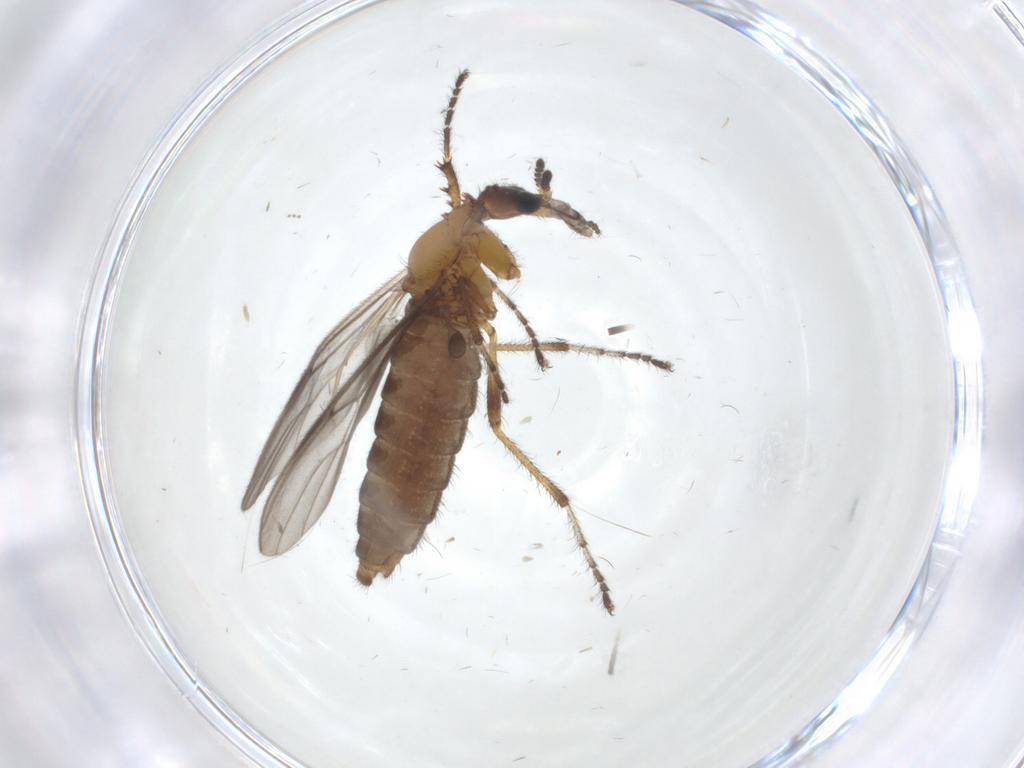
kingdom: Animalia
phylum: Arthropoda
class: Insecta
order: Diptera
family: Bibionidae
